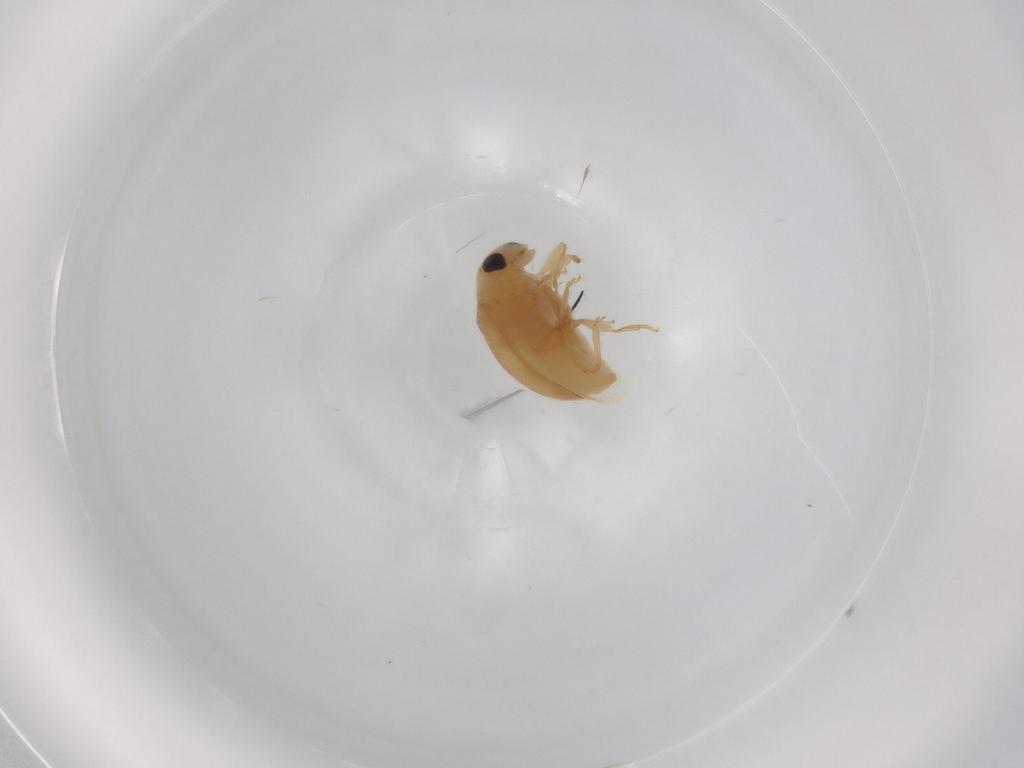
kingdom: Animalia
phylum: Arthropoda
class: Insecta
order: Coleoptera
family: Coccinellidae
